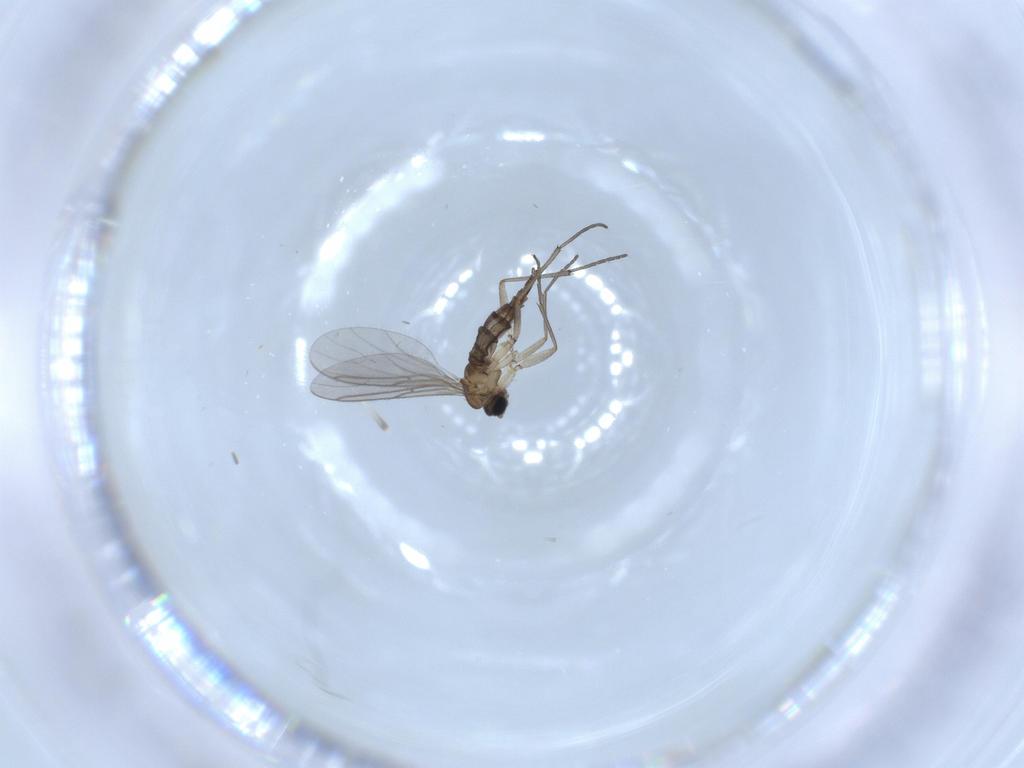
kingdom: Animalia
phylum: Arthropoda
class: Insecta
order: Diptera
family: Sciaridae
